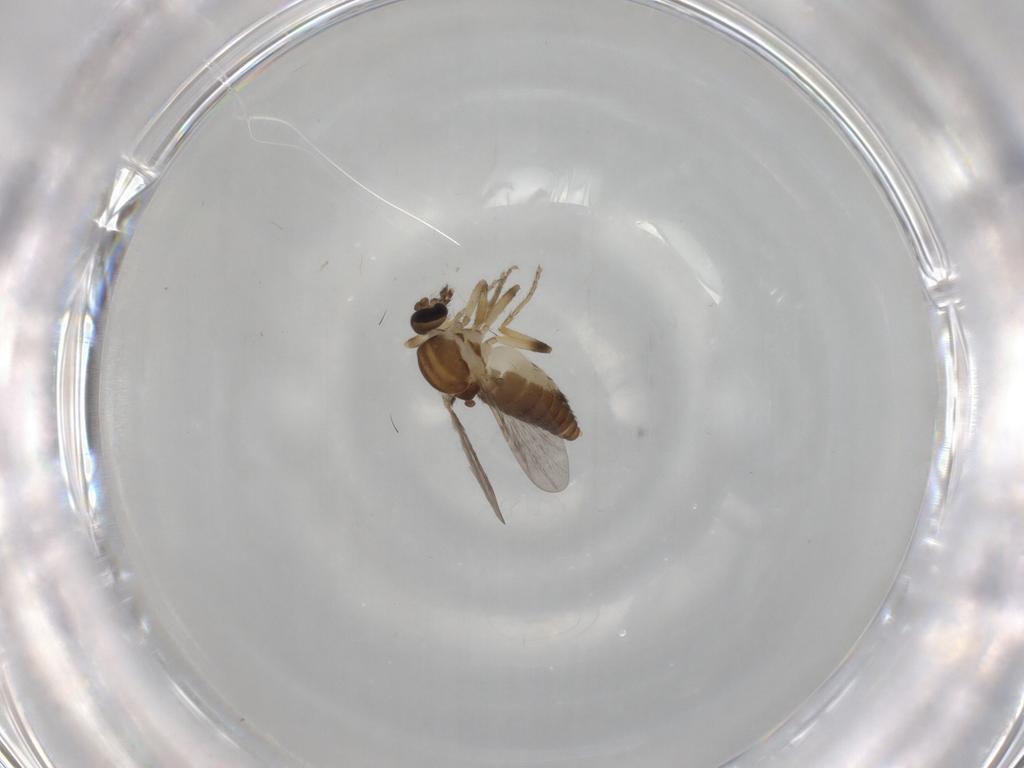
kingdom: Animalia
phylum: Arthropoda
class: Insecta
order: Diptera
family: Ceratopogonidae
